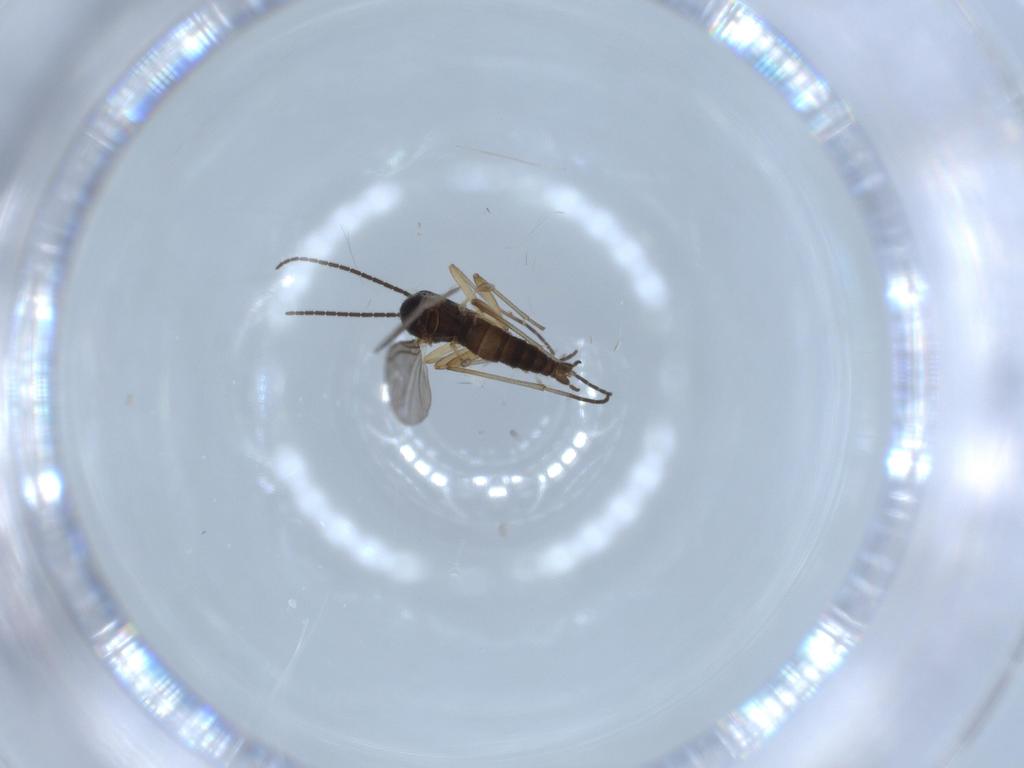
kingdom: Animalia
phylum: Arthropoda
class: Insecta
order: Diptera
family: Sciaridae
